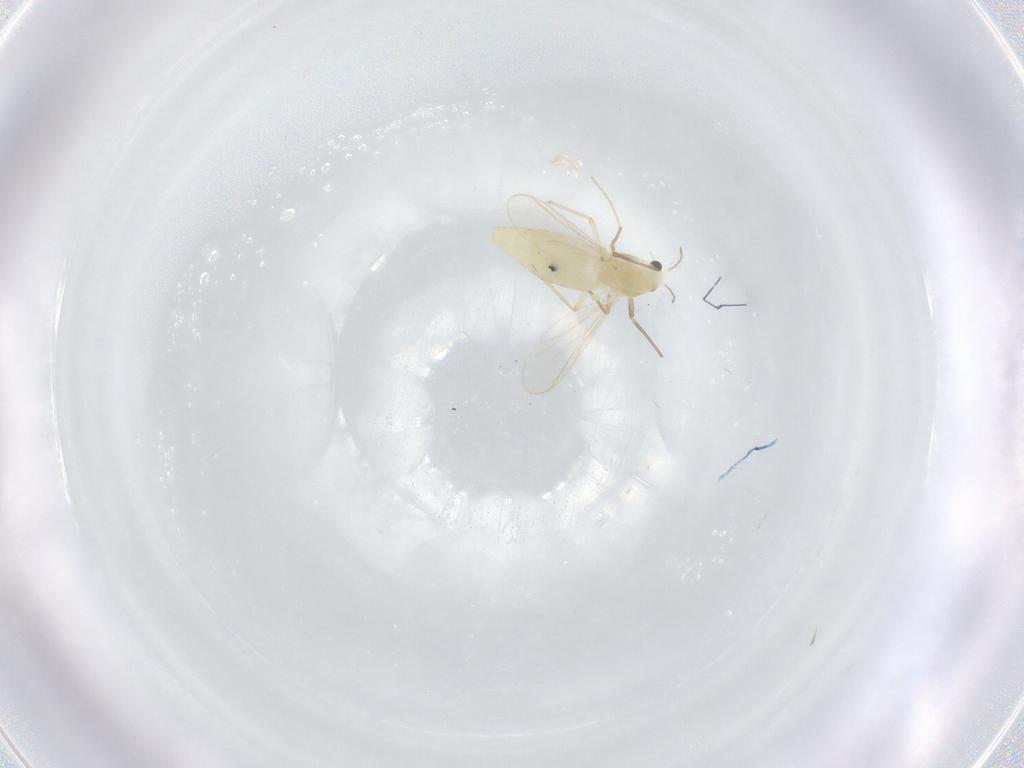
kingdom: Animalia
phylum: Arthropoda
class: Insecta
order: Diptera
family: Chironomidae
